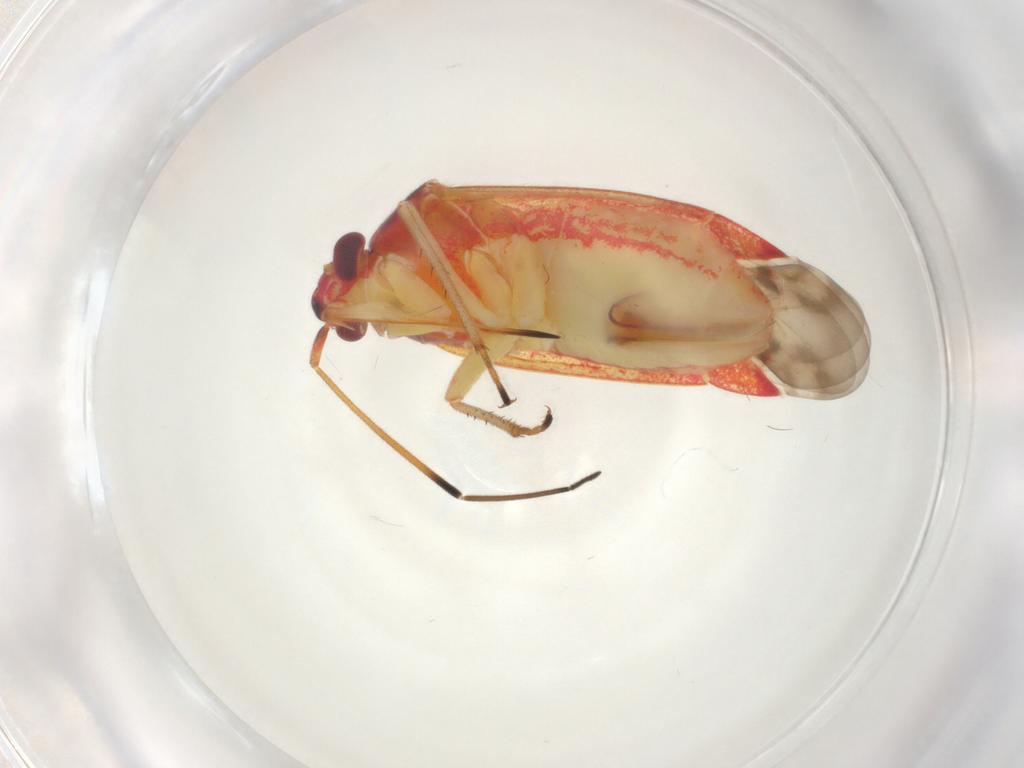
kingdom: Animalia
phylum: Arthropoda
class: Insecta
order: Hemiptera
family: Miridae
